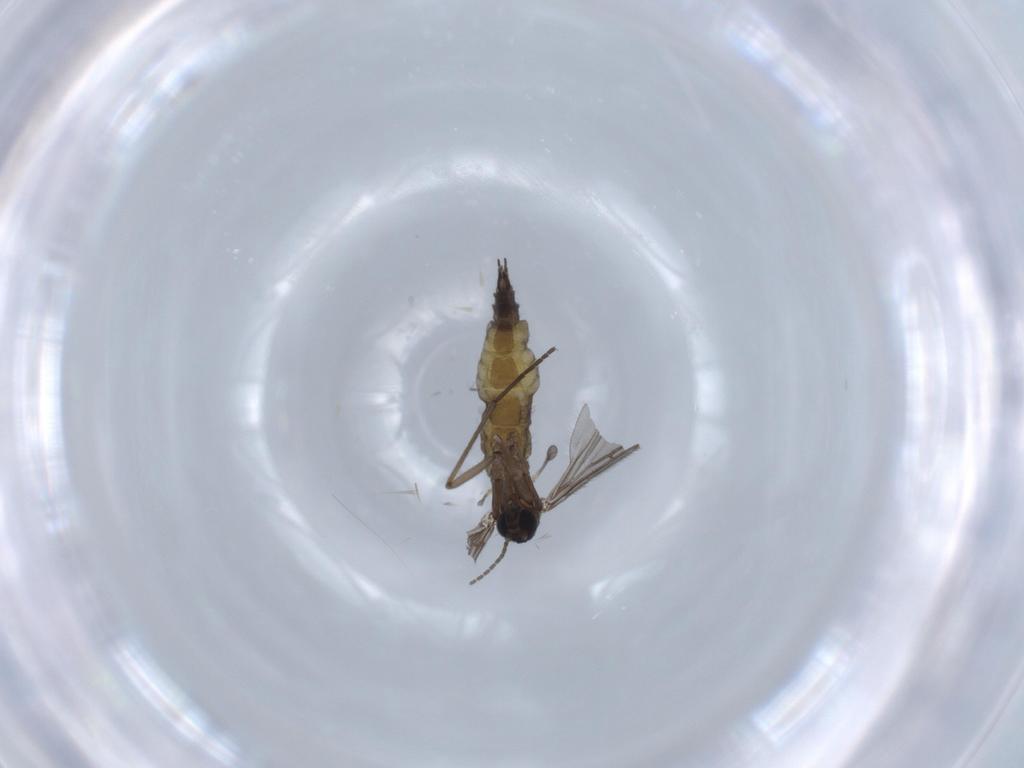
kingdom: Animalia
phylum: Arthropoda
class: Insecta
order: Diptera
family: Sciaridae
